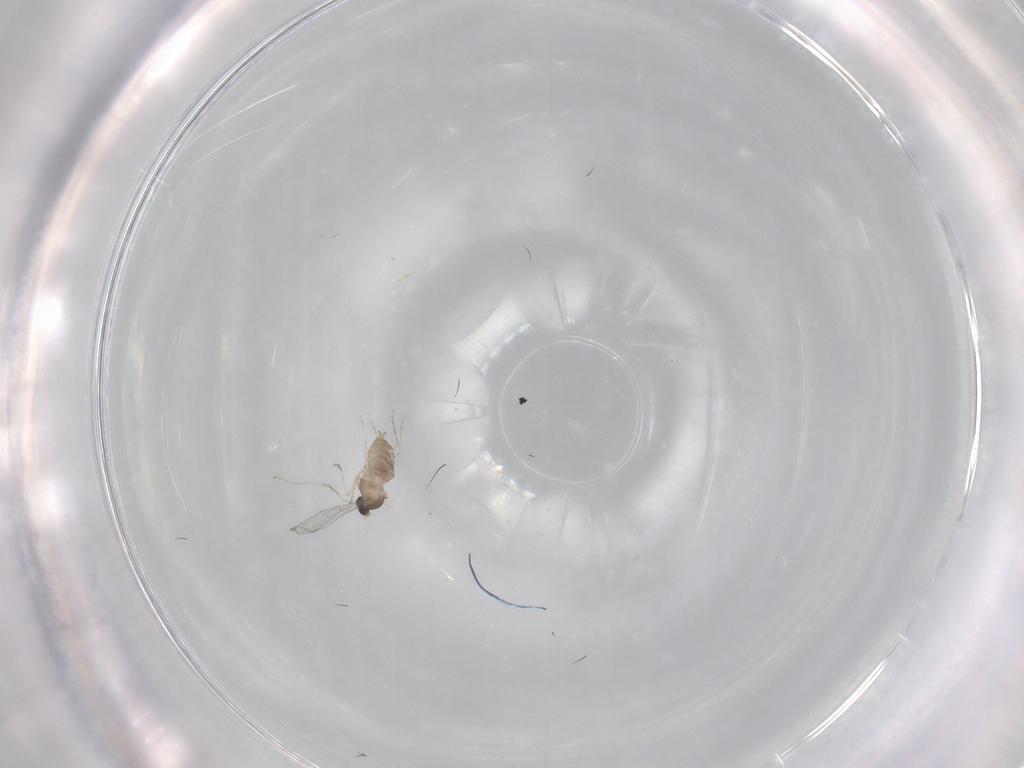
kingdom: Animalia
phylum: Arthropoda
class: Insecta
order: Diptera
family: Cecidomyiidae
